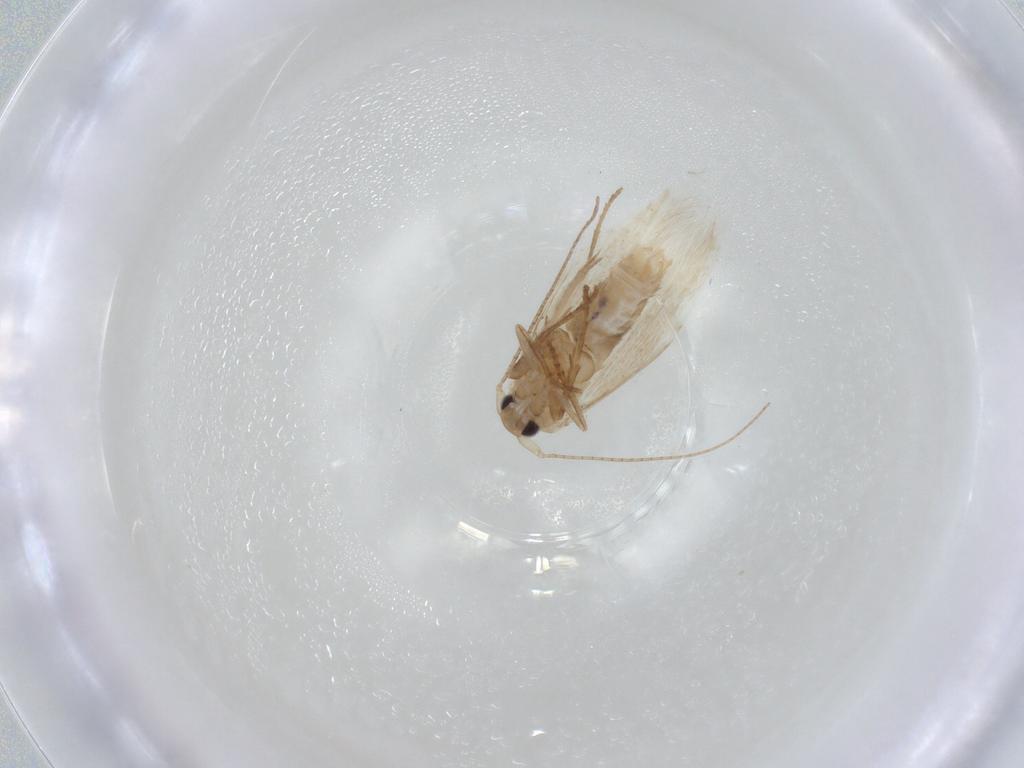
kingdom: Animalia
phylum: Arthropoda
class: Insecta
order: Lepidoptera
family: Bucculatricidae
